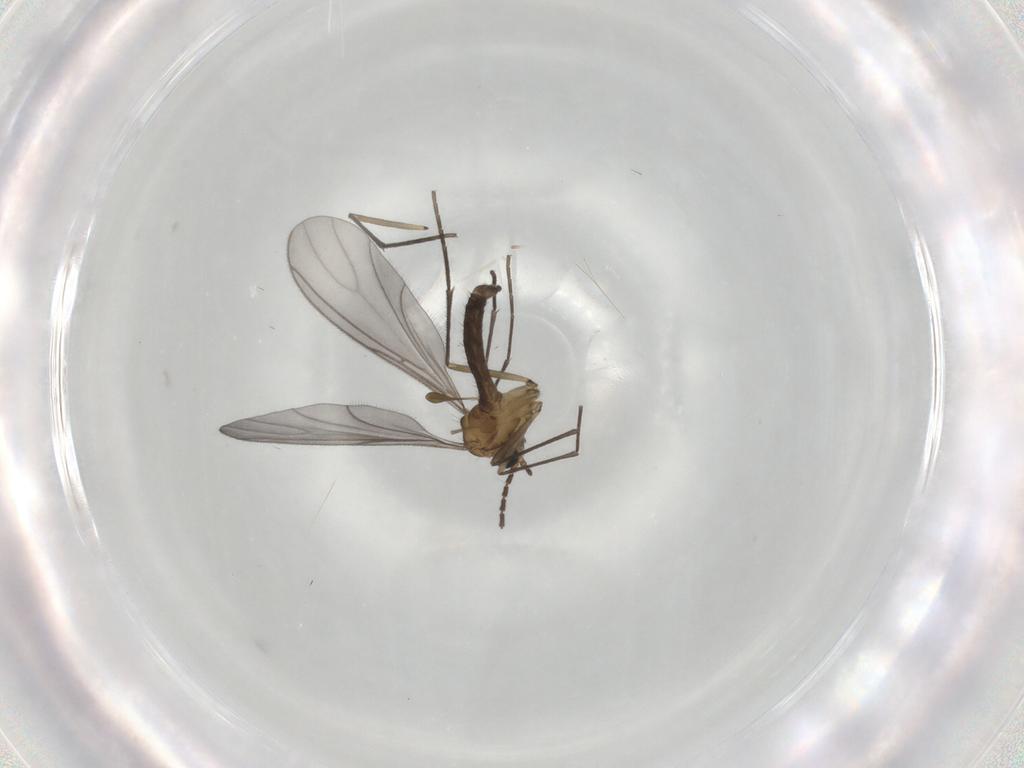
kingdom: Animalia
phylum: Arthropoda
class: Insecta
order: Diptera
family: Sciaridae
